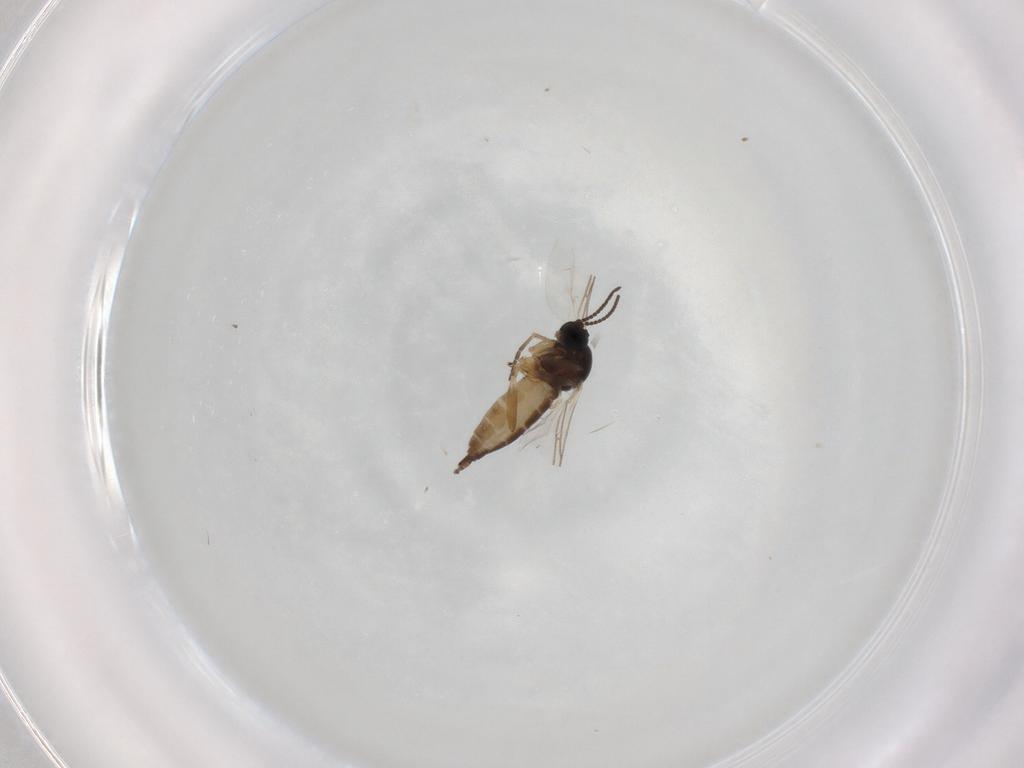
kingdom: Animalia
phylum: Arthropoda
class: Insecta
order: Diptera
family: Sciaridae
